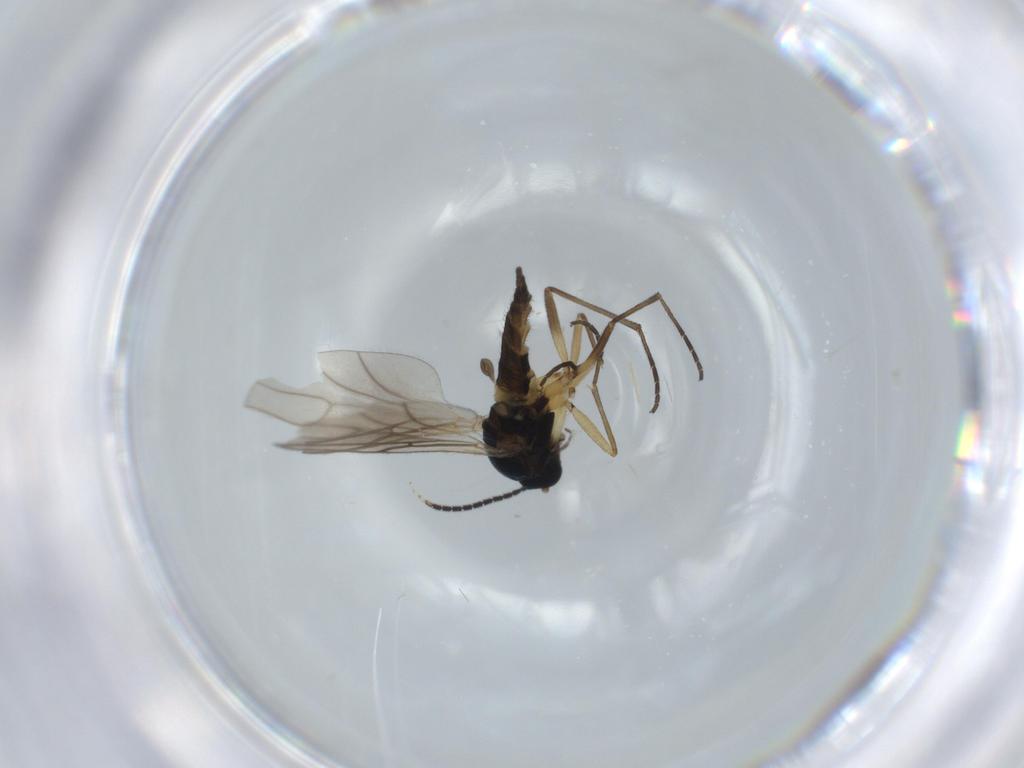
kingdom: Animalia
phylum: Arthropoda
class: Insecta
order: Diptera
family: Sciaridae
